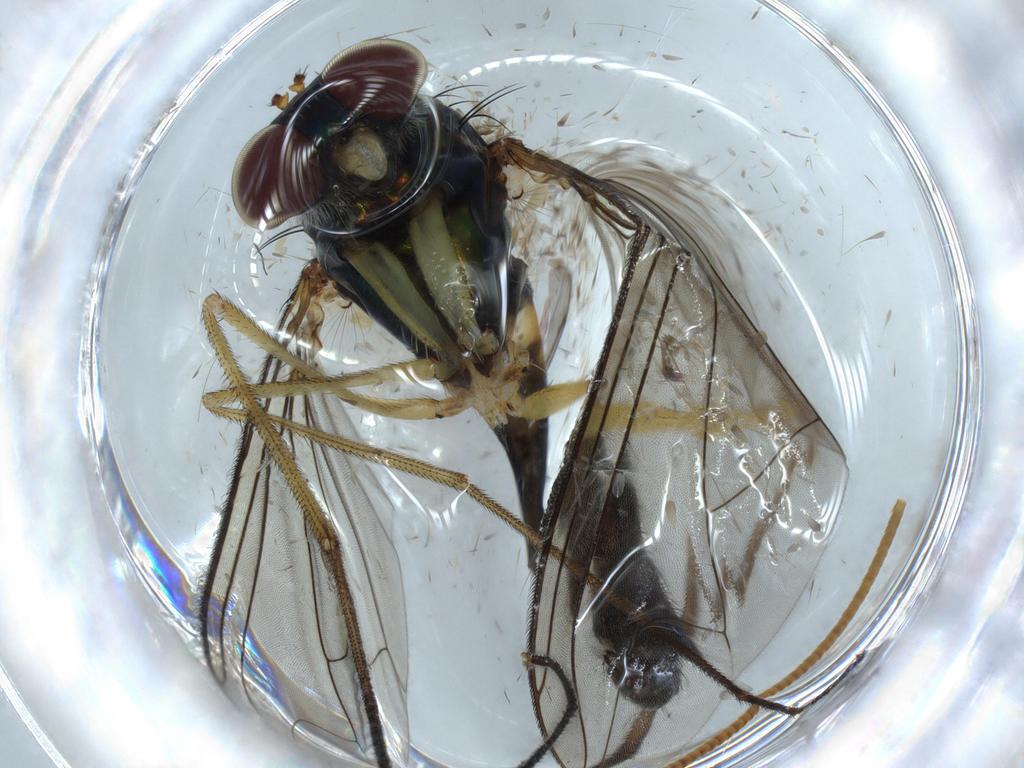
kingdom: Animalia
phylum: Arthropoda
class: Insecta
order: Diptera
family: Dolichopodidae
